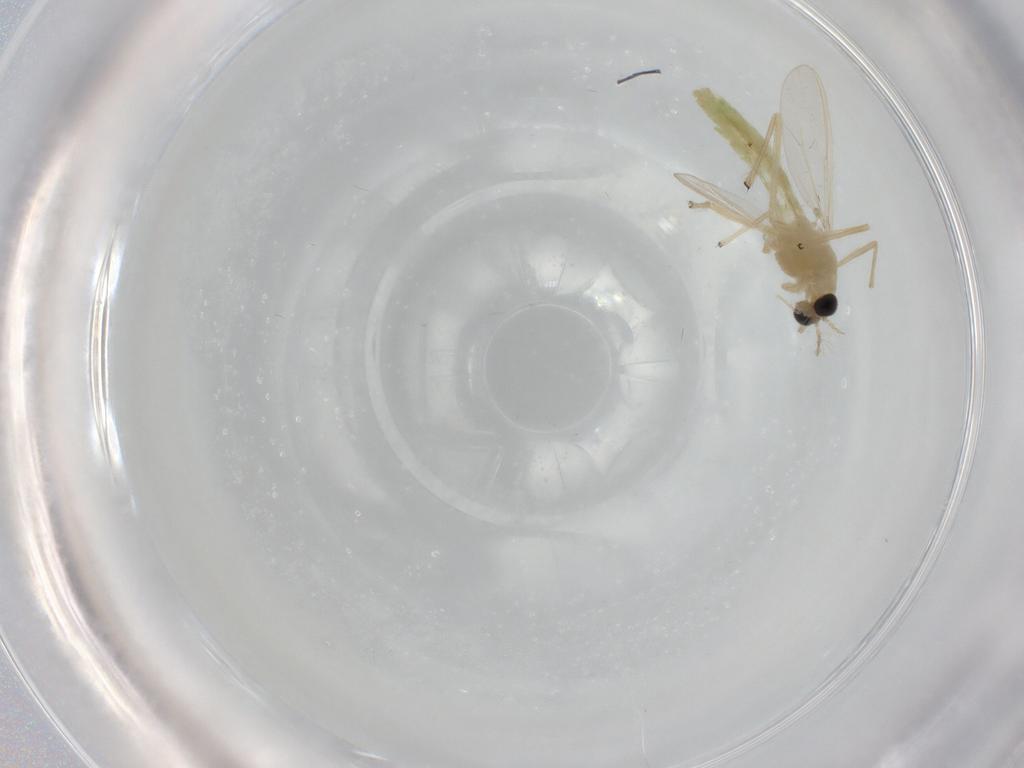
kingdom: Animalia
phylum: Arthropoda
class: Insecta
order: Diptera
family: Chironomidae
